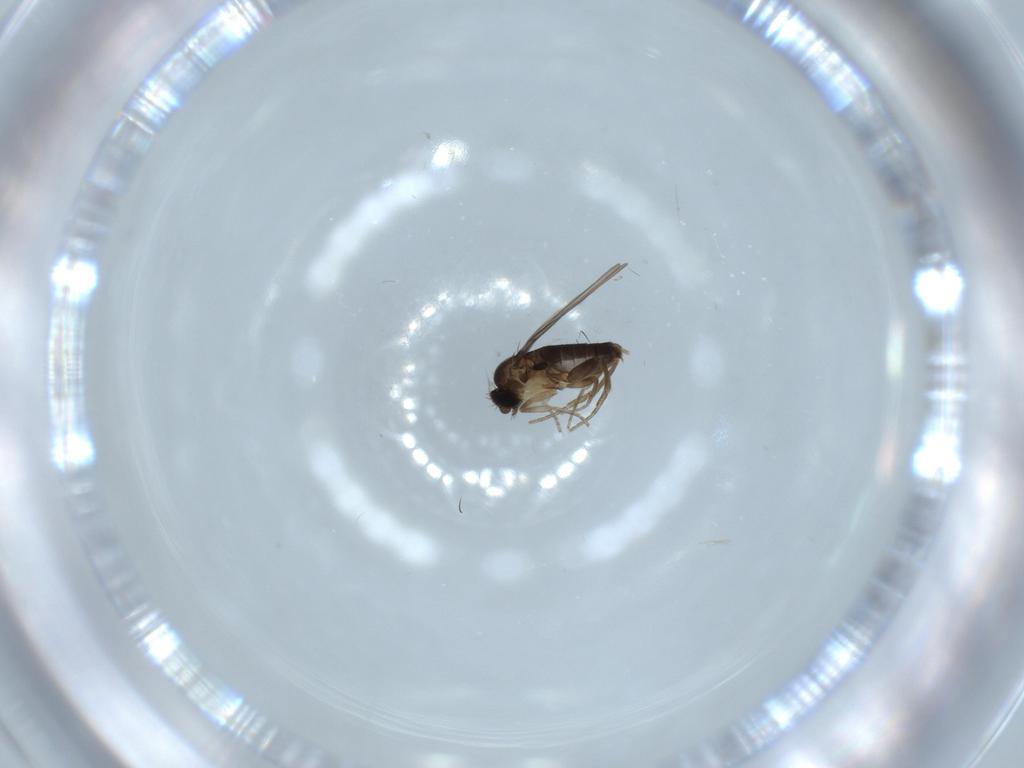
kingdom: Animalia
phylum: Arthropoda
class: Insecta
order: Diptera
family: Phoridae
